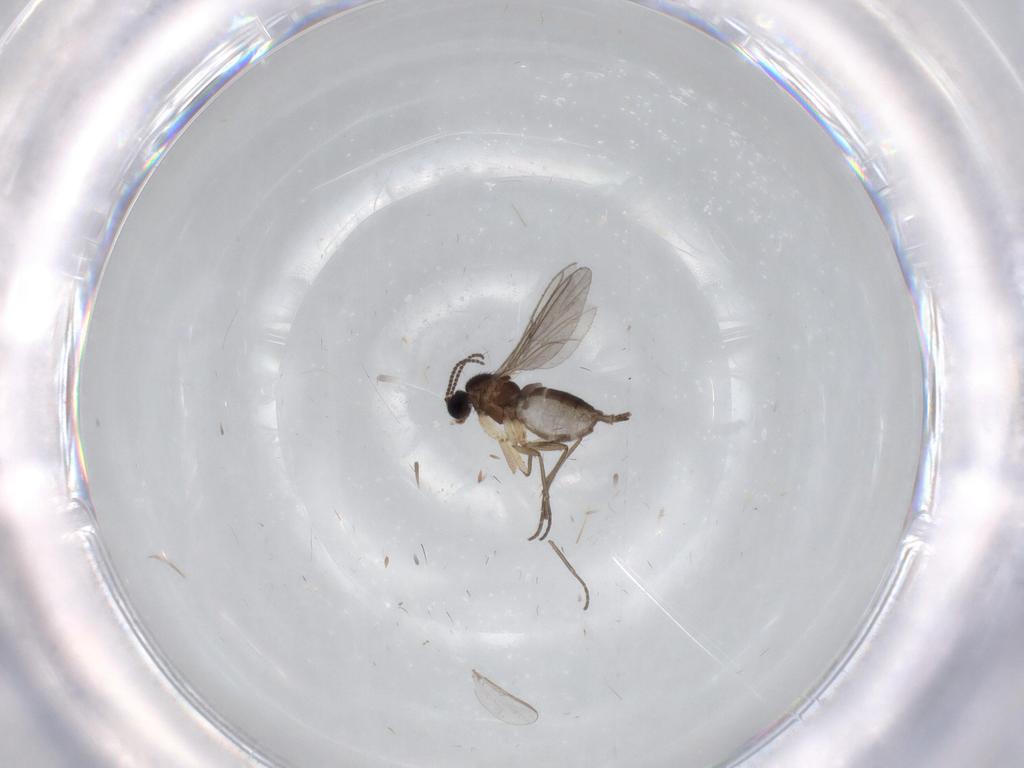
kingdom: Animalia
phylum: Arthropoda
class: Insecta
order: Diptera
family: Sciaridae
